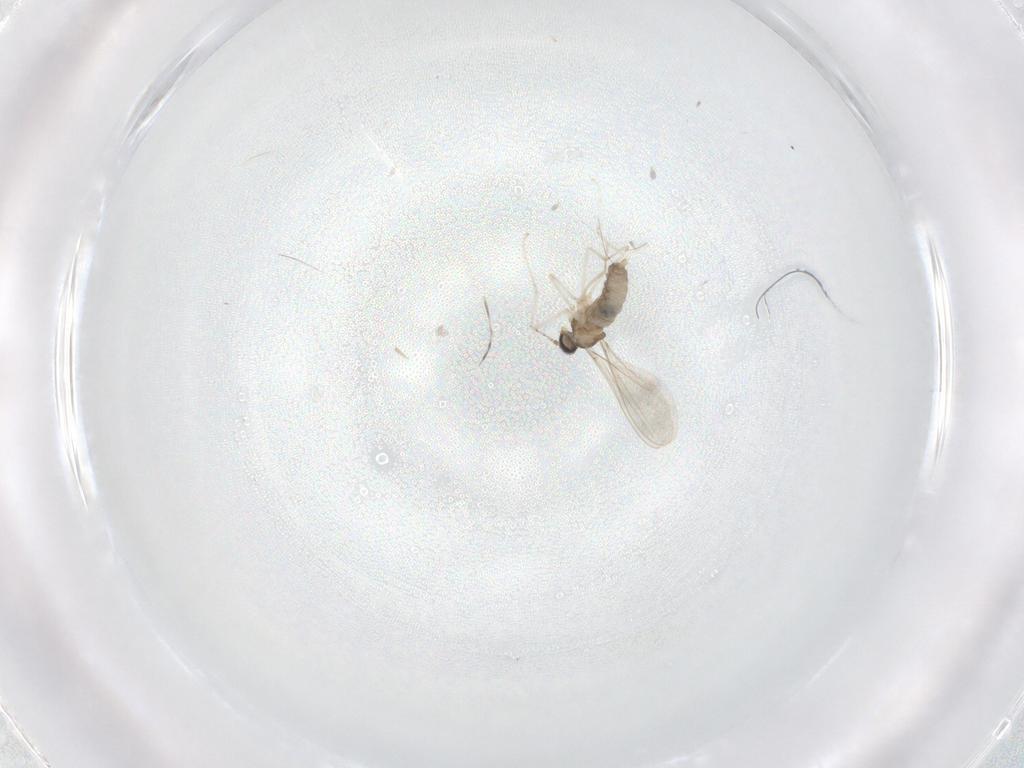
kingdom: Animalia
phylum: Arthropoda
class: Insecta
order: Diptera
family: Cecidomyiidae
